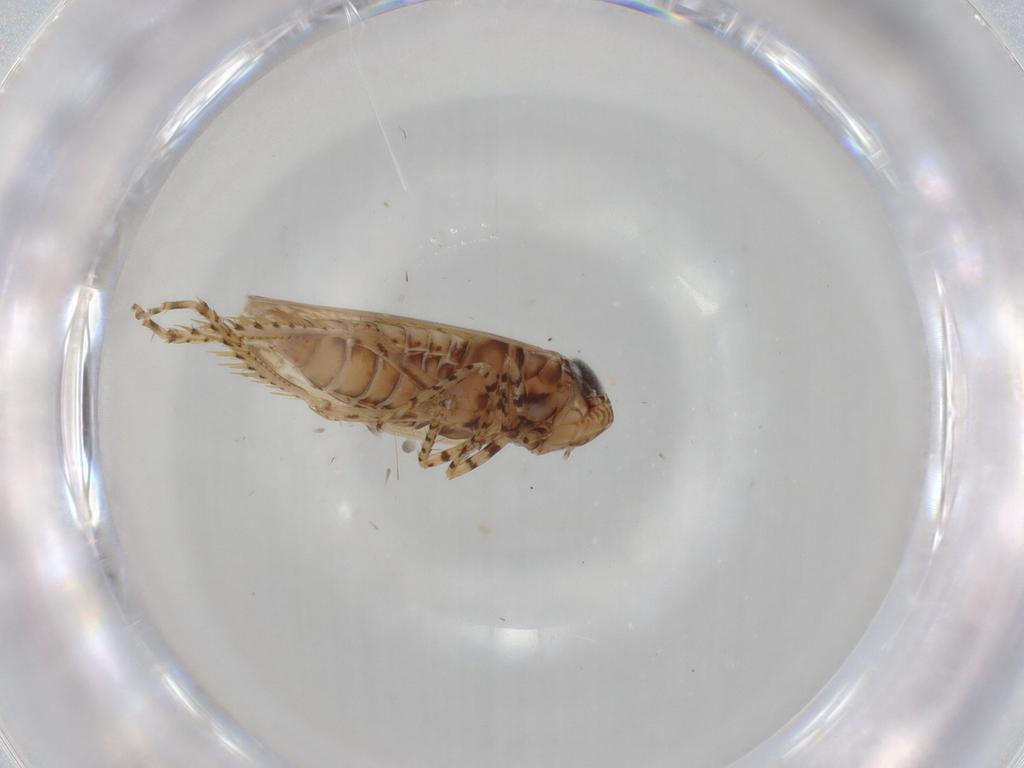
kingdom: Animalia
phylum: Arthropoda
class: Insecta
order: Hemiptera
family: Cicadellidae
